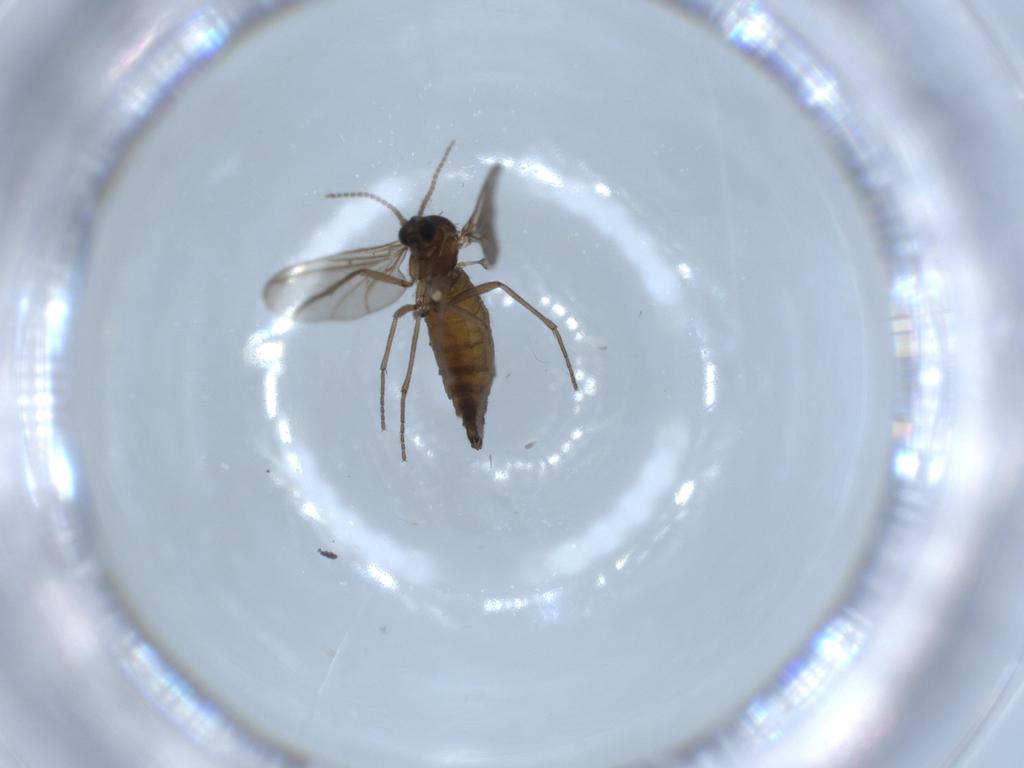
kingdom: Animalia
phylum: Arthropoda
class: Insecta
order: Diptera
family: Sciaridae
